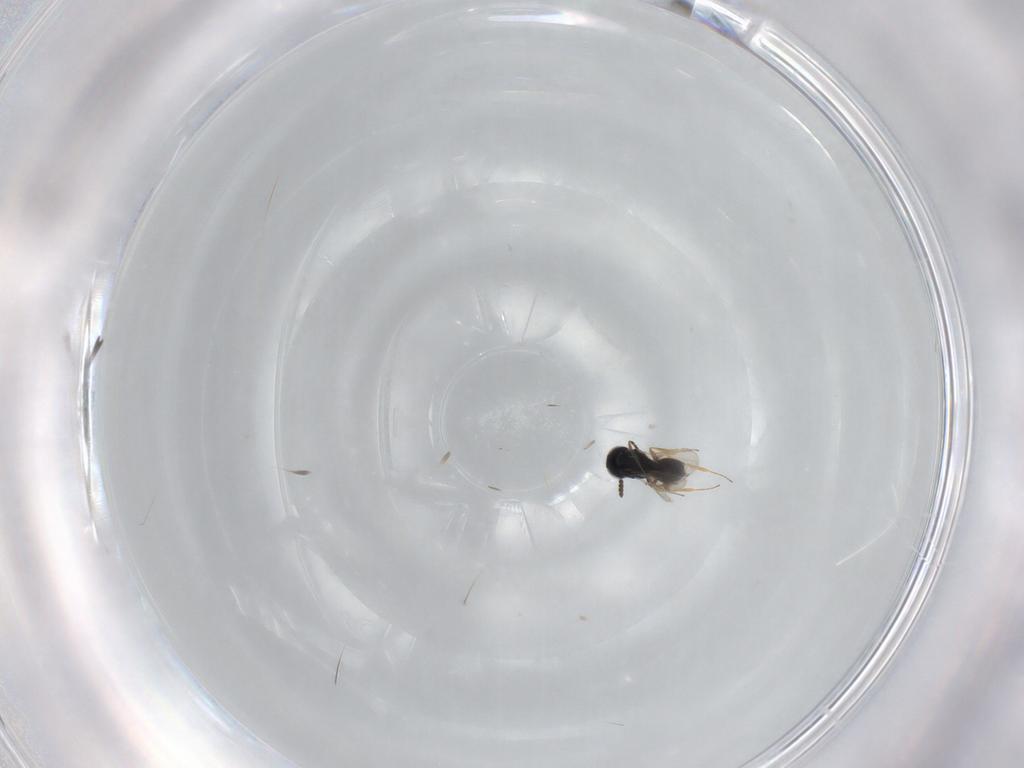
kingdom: Animalia
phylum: Arthropoda
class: Insecta
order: Hymenoptera
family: Scelionidae
